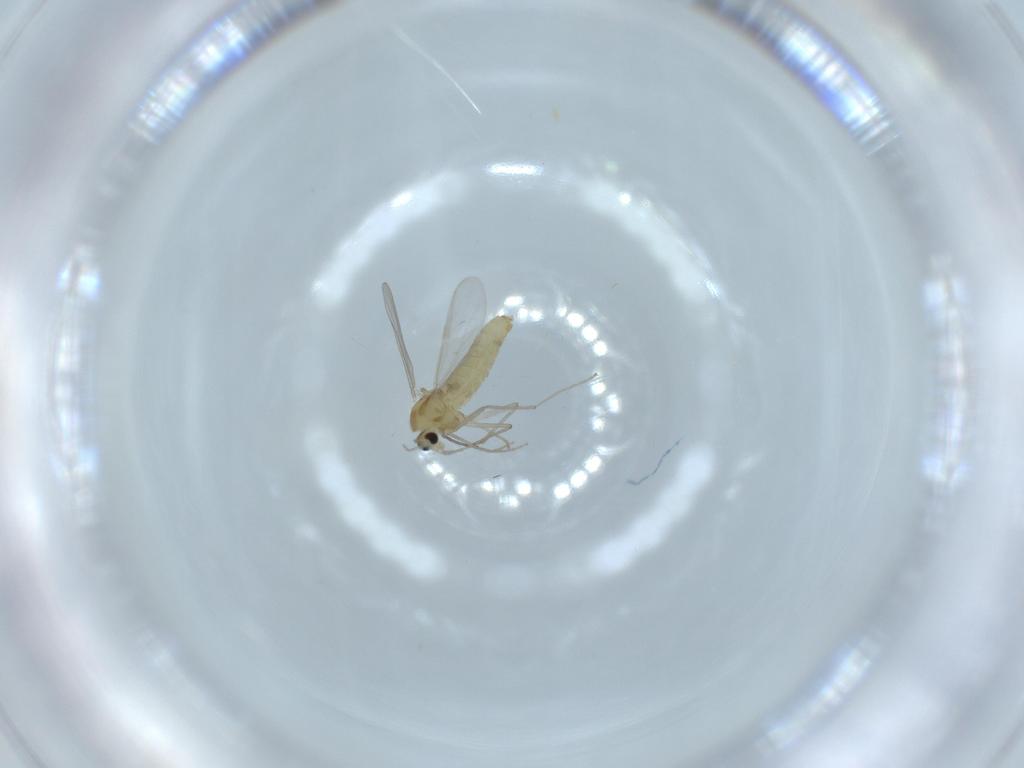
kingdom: Animalia
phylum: Arthropoda
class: Insecta
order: Diptera
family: Chironomidae
